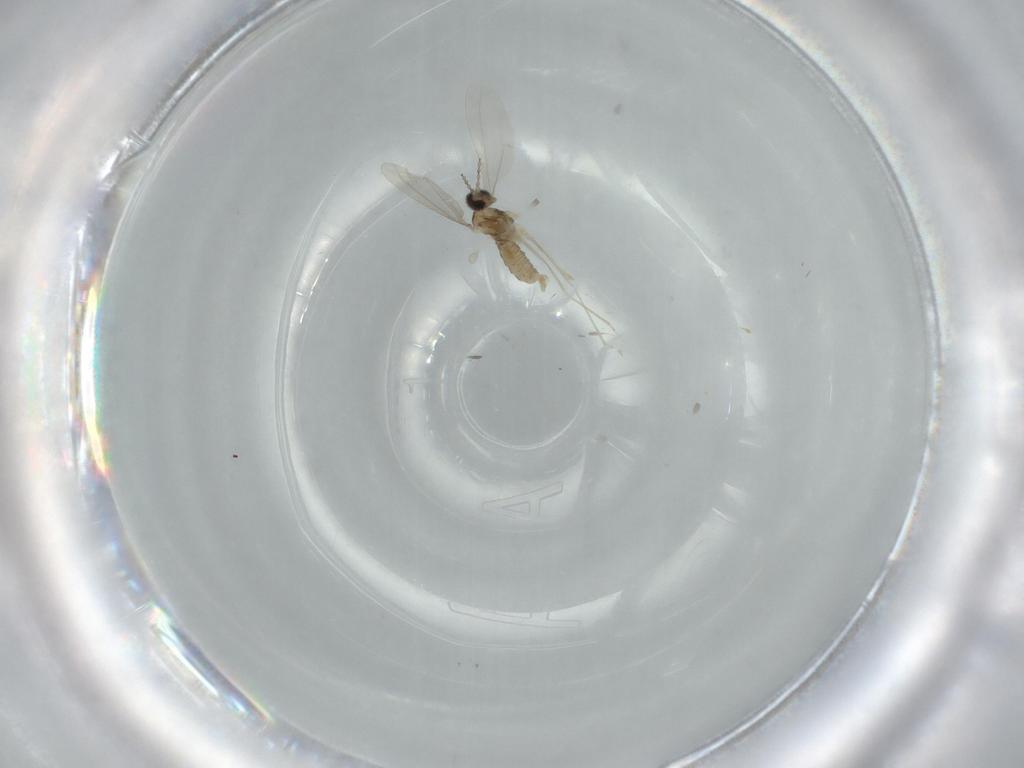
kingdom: Animalia
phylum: Arthropoda
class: Insecta
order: Diptera
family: Cecidomyiidae
